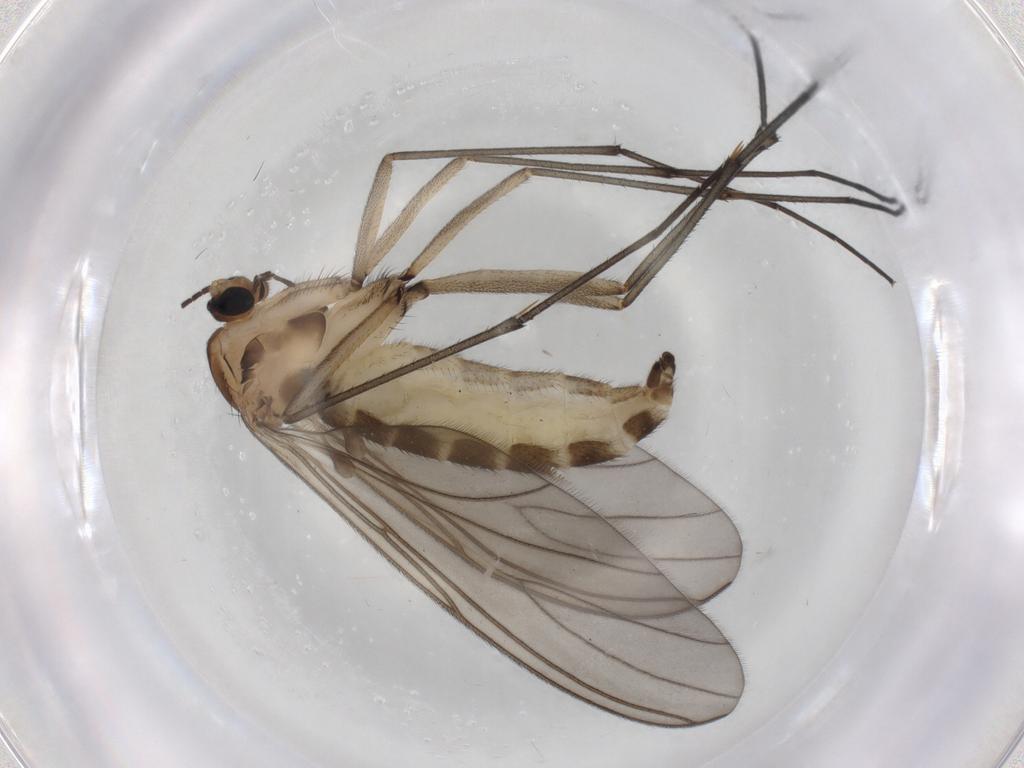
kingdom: Animalia
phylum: Arthropoda
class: Insecta
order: Diptera
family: Sciaridae
